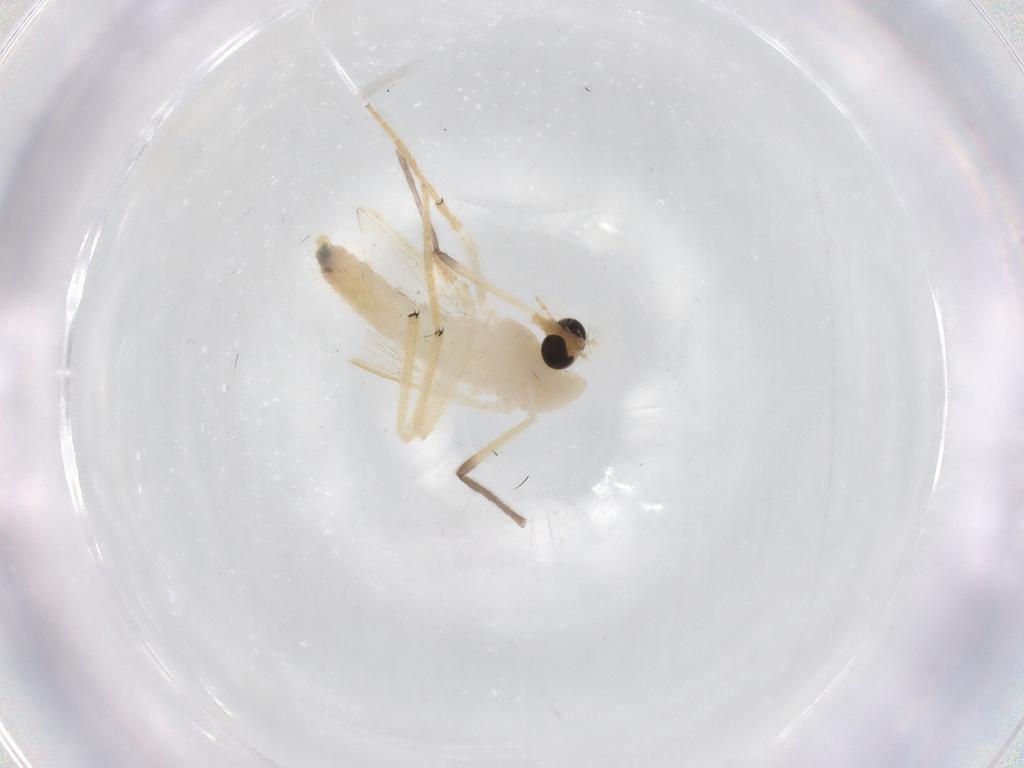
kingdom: Animalia
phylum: Arthropoda
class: Insecta
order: Diptera
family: Chironomidae
